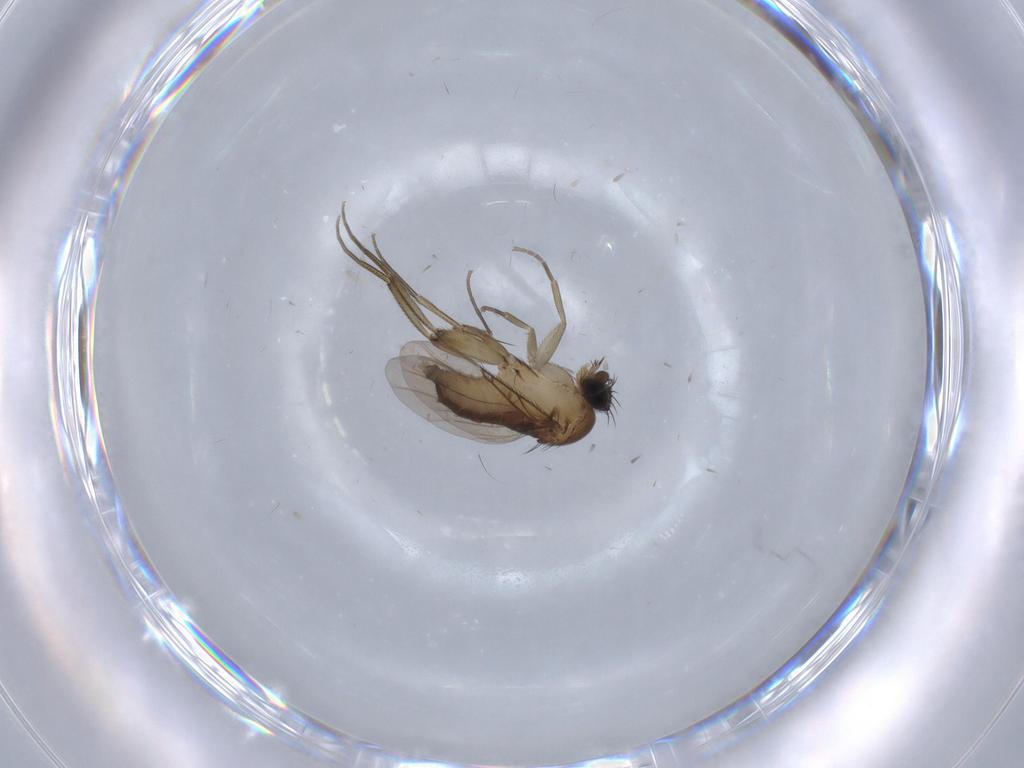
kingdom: Animalia
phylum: Arthropoda
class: Insecta
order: Diptera
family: Phoridae
